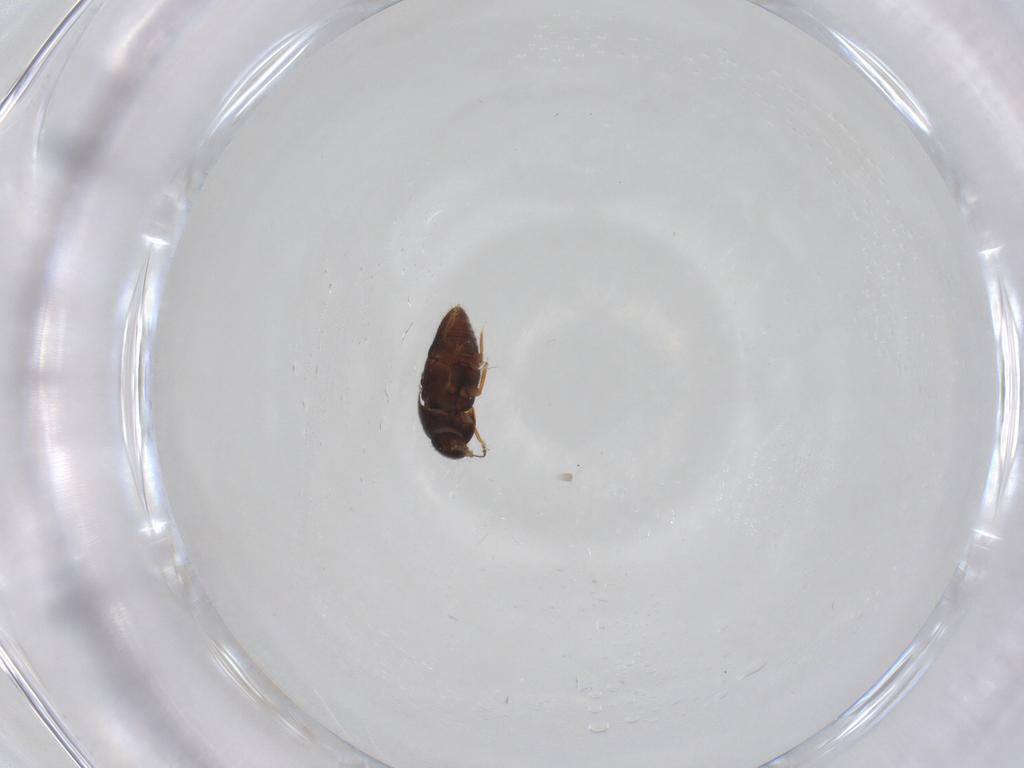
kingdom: Animalia
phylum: Arthropoda
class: Insecta
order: Coleoptera
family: Ptiliidae
